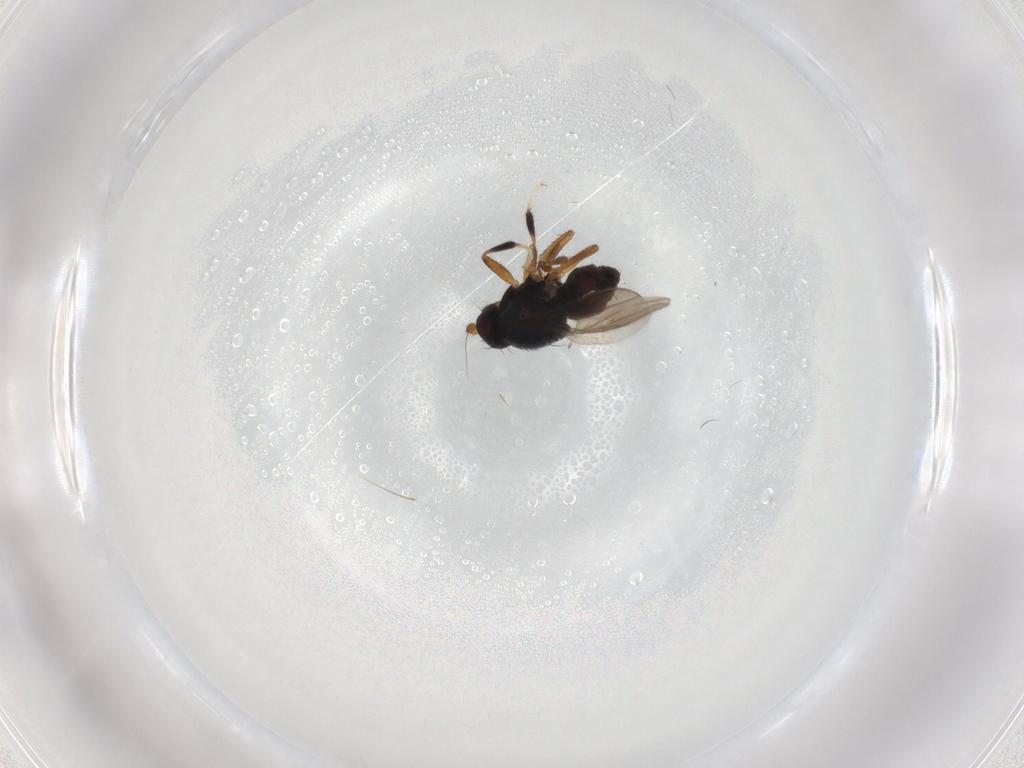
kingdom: Animalia
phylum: Arthropoda
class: Insecta
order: Diptera
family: Sphaeroceridae
